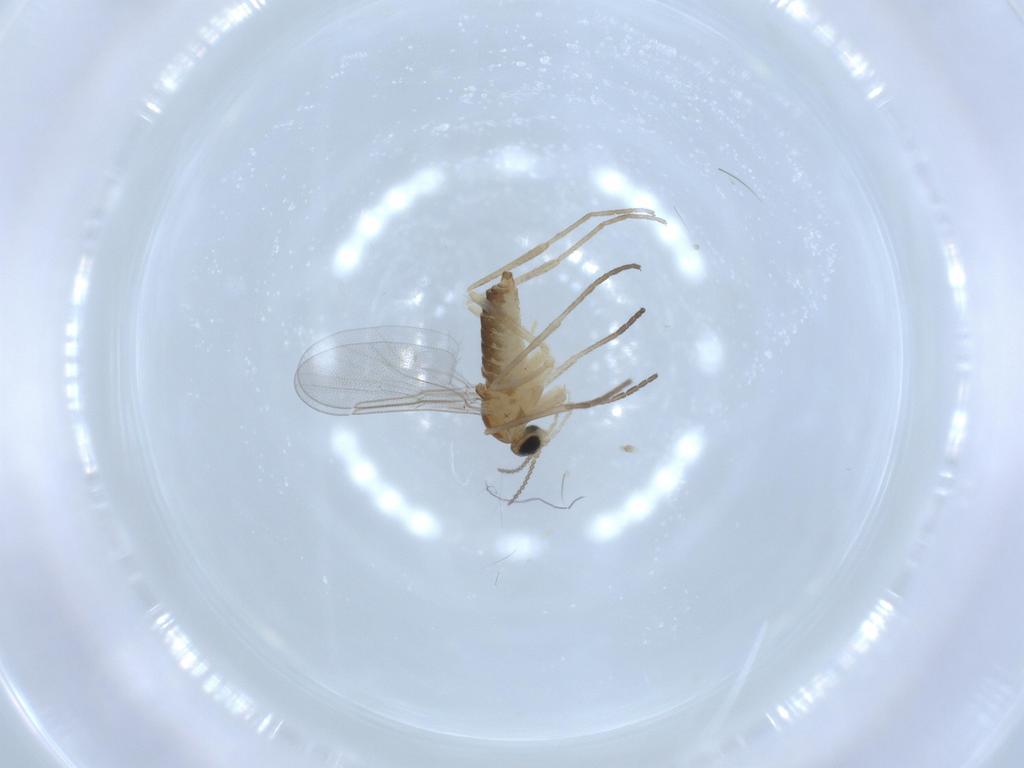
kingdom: Animalia
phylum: Arthropoda
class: Insecta
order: Diptera
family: Cecidomyiidae
